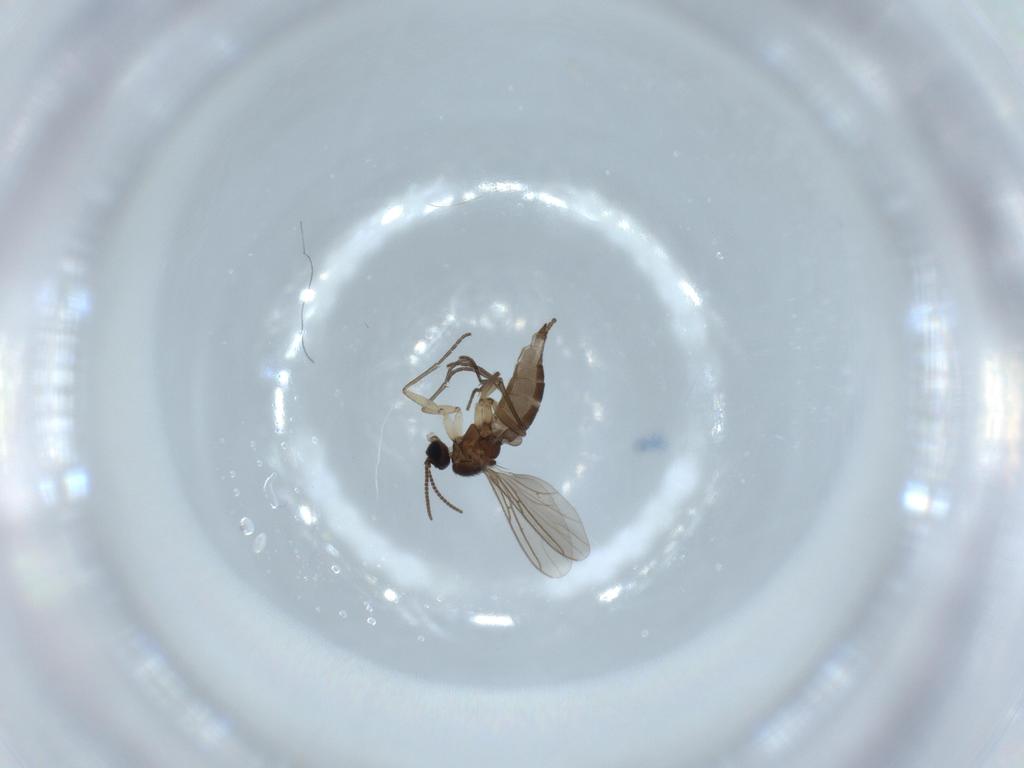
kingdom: Animalia
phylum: Arthropoda
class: Insecta
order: Diptera
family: Sciaridae
